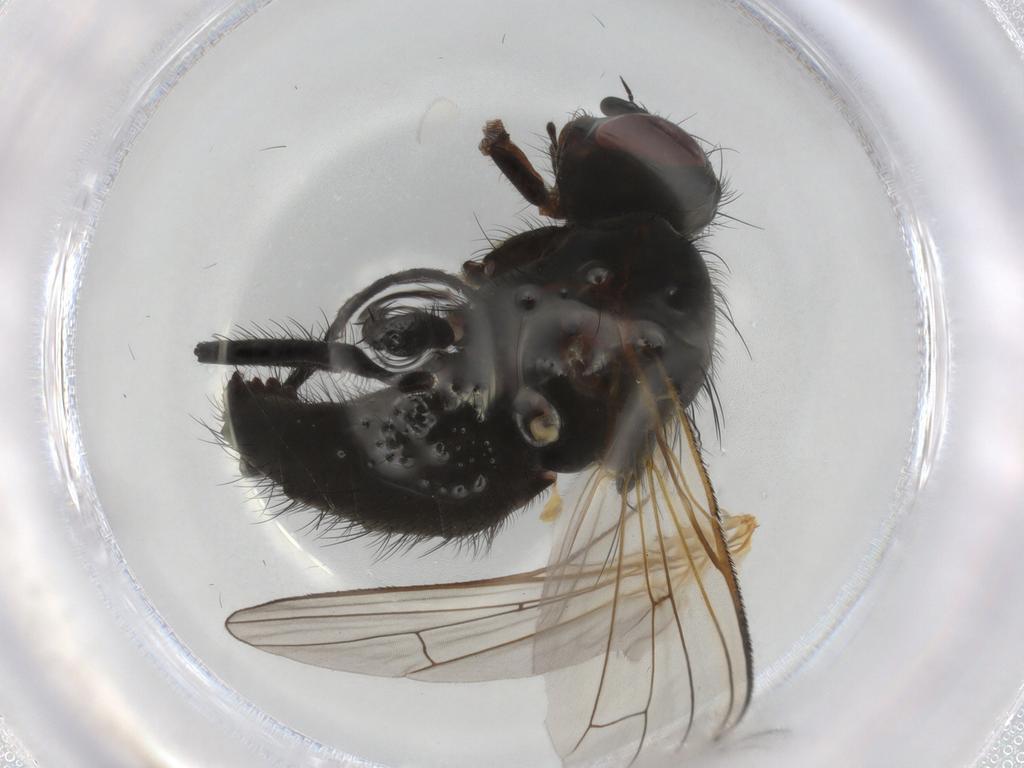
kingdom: Animalia
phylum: Arthropoda
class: Insecta
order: Diptera
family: Anthomyiidae
